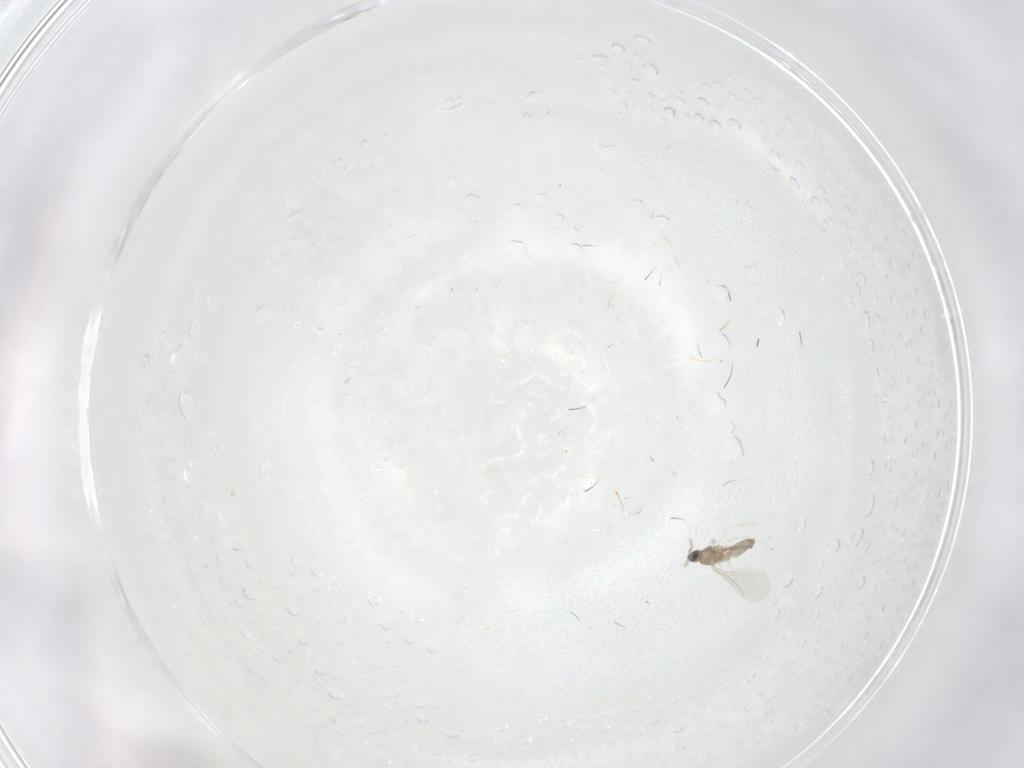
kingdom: Animalia
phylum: Arthropoda
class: Insecta
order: Diptera
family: Cecidomyiidae
